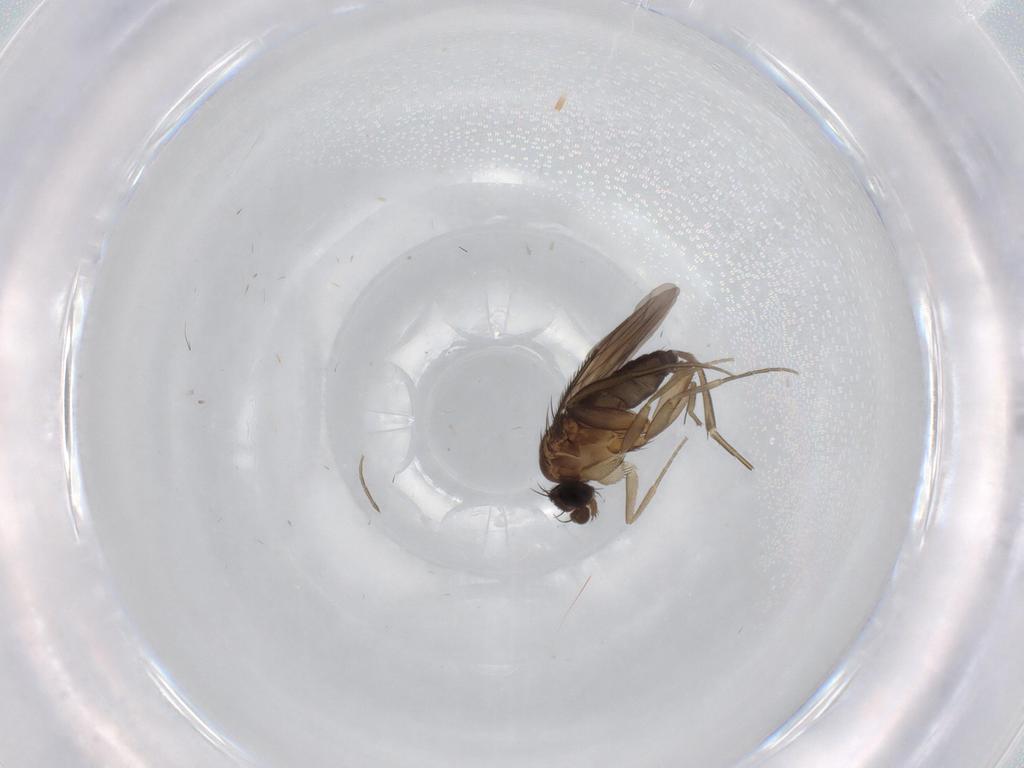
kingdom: Animalia
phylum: Arthropoda
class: Insecta
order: Diptera
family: Phoridae
